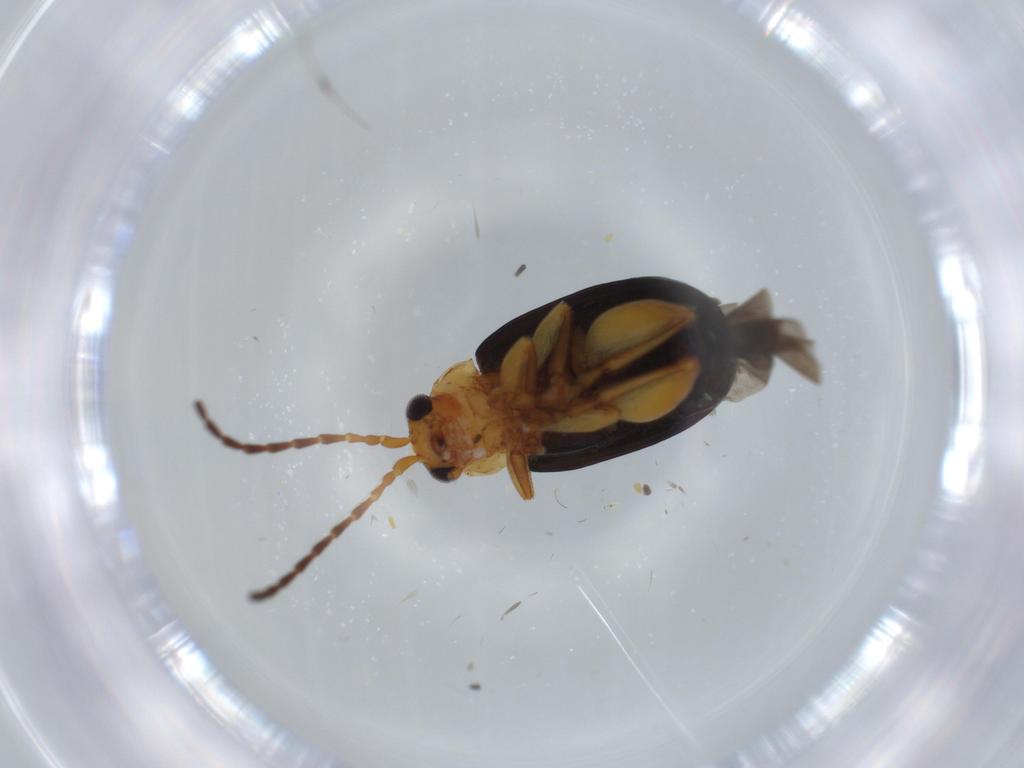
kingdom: Animalia
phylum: Arthropoda
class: Insecta
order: Coleoptera
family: Chrysomelidae
